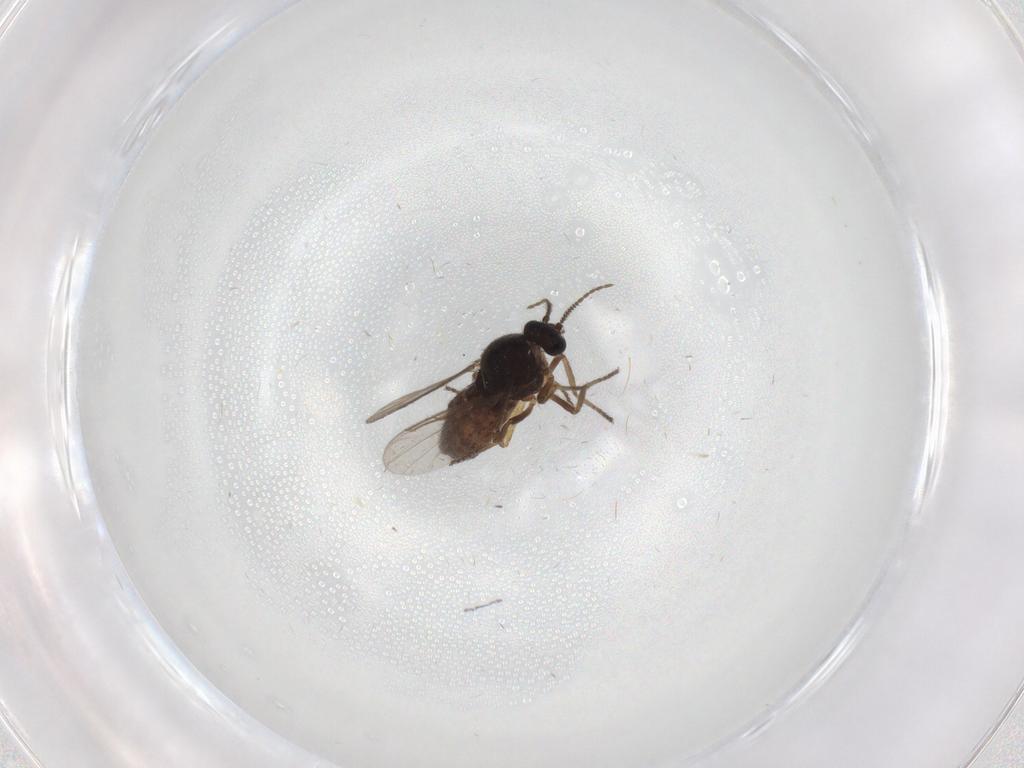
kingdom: Animalia
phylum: Arthropoda
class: Insecta
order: Diptera
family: Ceratopogonidae
